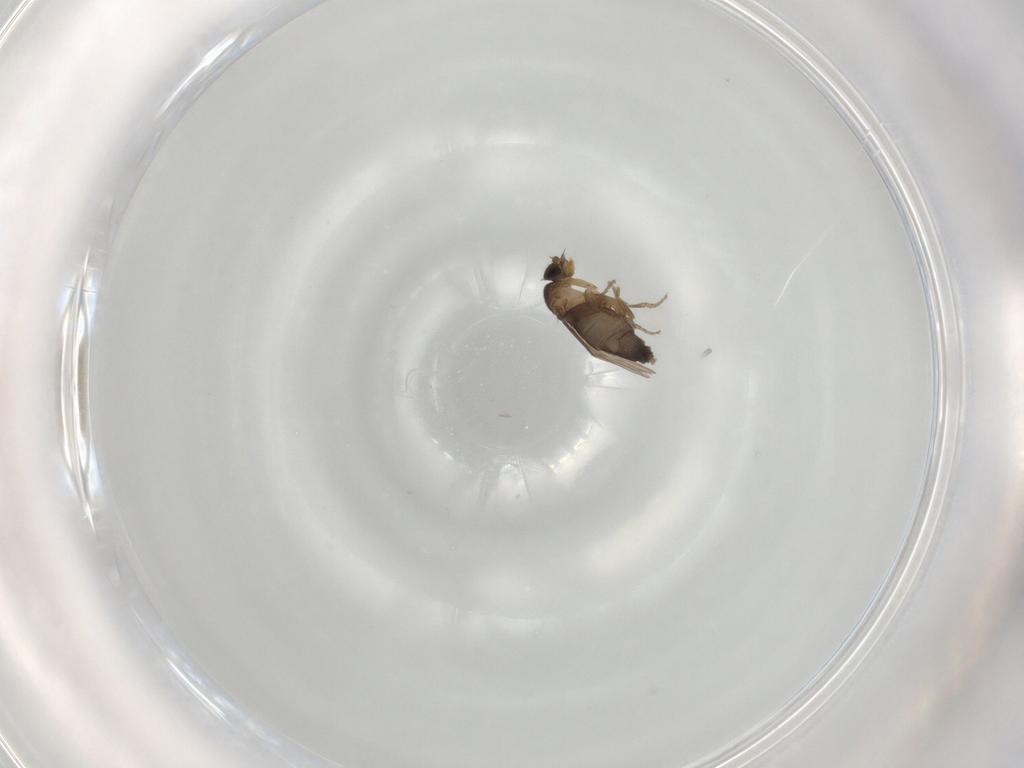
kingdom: Animalia
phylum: Arthropoda
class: Insecta
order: Diptera
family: Phoridae
